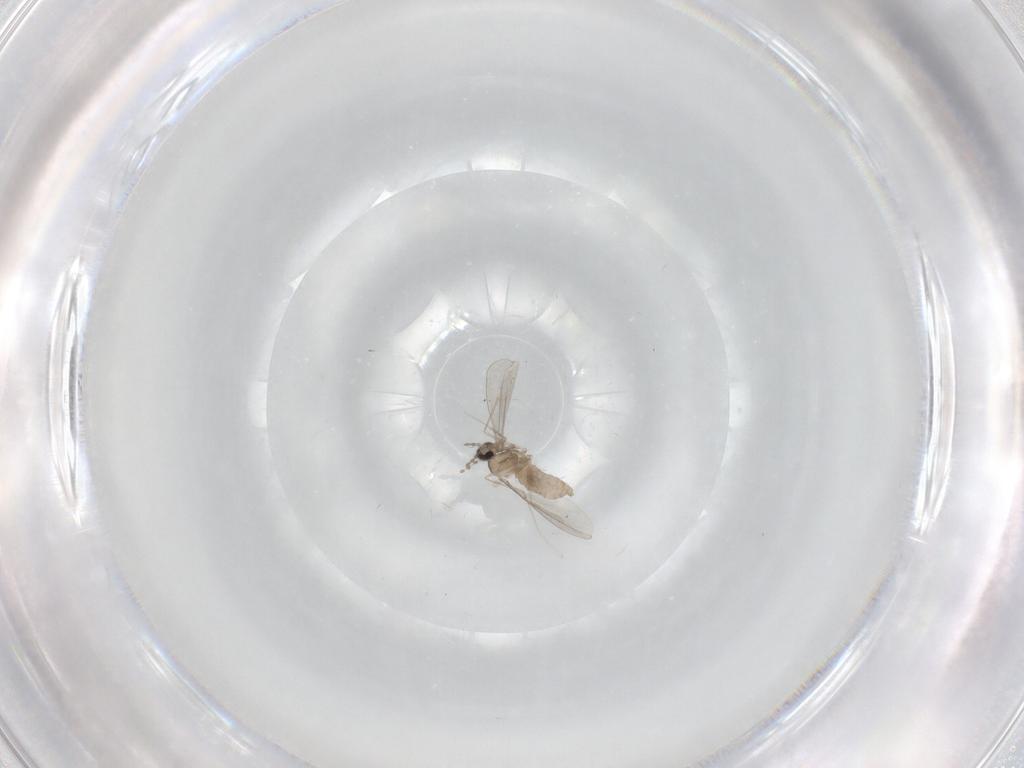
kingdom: Animalia
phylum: Arthropoda
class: Insecta
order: Diptera
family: Cecidomyiidae
